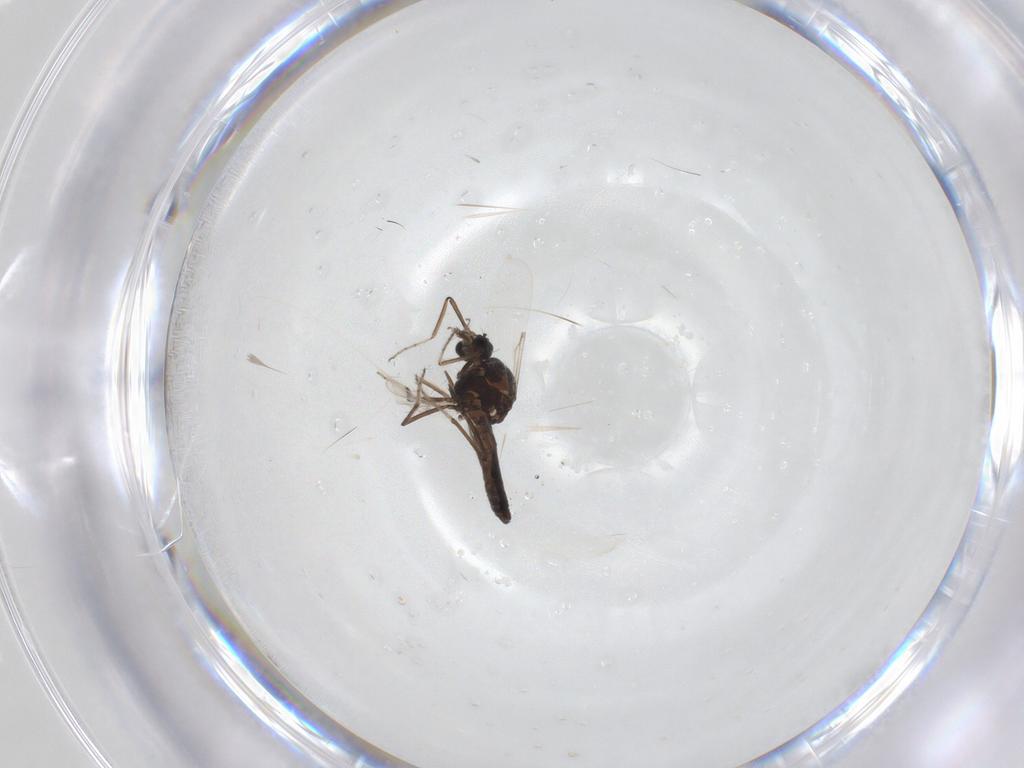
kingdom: Animalia
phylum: Arthropoda
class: Insecta
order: Diptera
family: Ceratopogonidae
